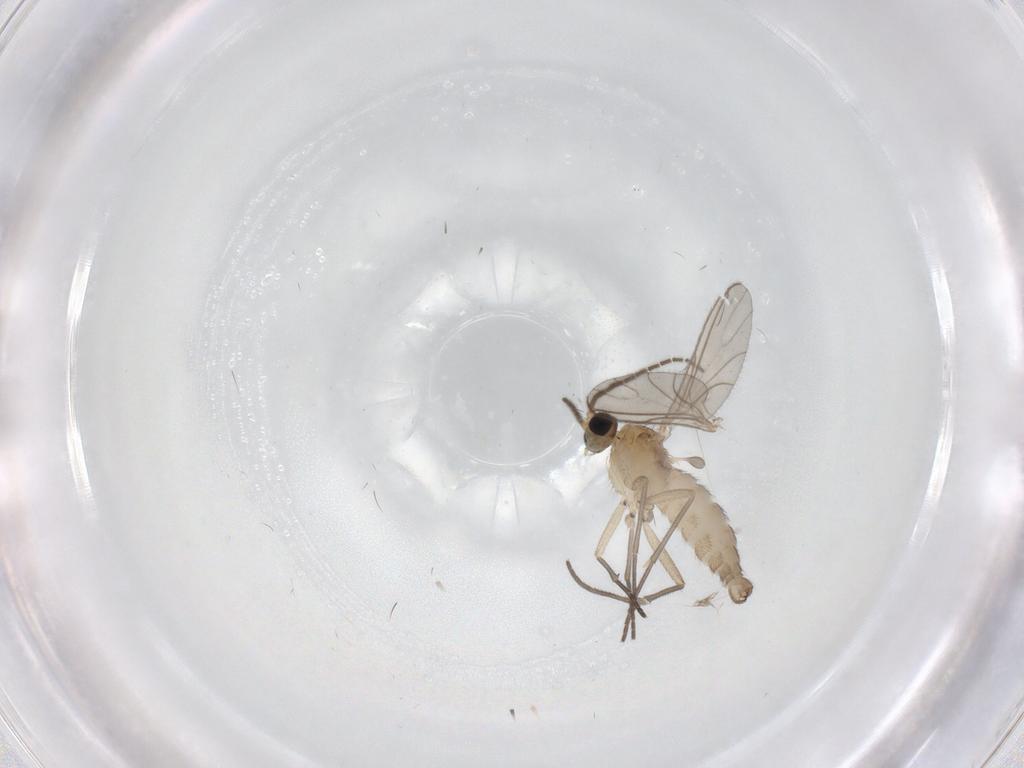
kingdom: Animalia
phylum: Arthropoda
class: Insecta
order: Diptera
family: Sciaridae
